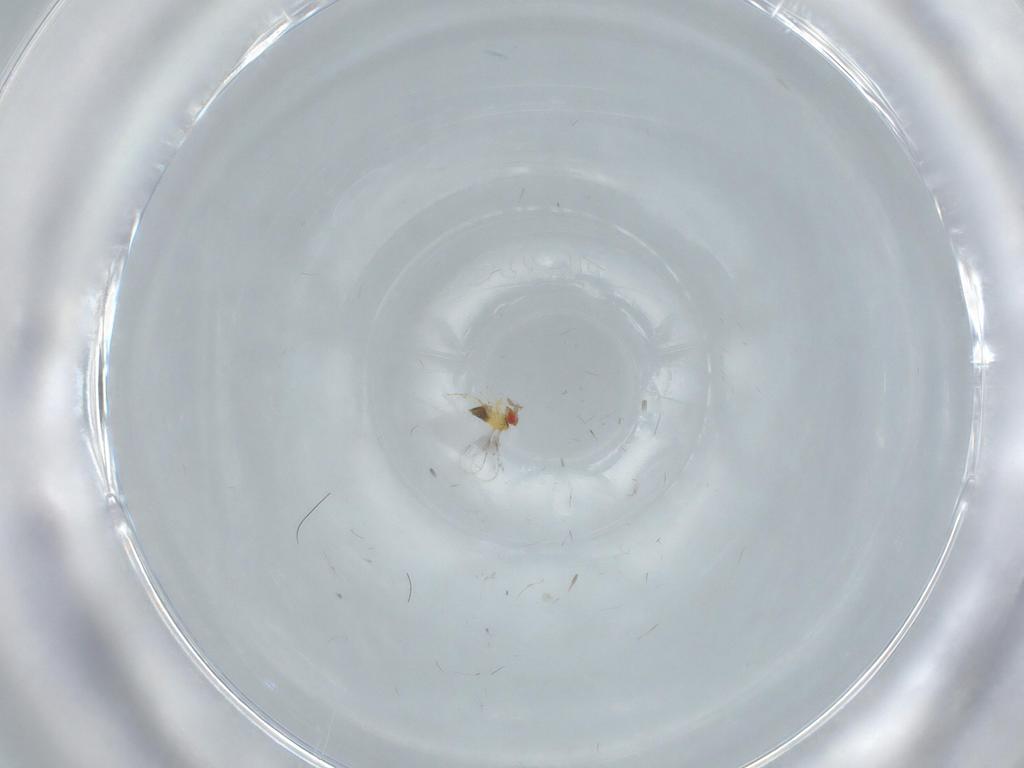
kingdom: Animalia
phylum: Arthropoda
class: Insecta
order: Hymenoptera
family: Trichogrammatidae
